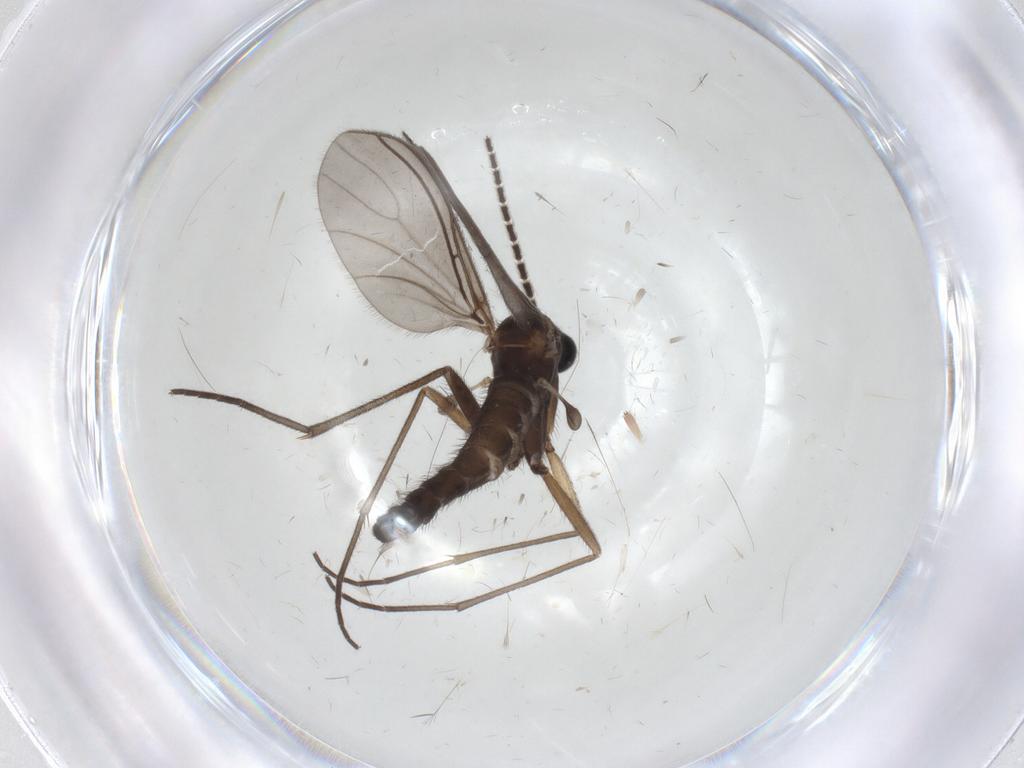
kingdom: Animalia
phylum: Arthropoda
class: Insecta
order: Diptera
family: Sciaridae
